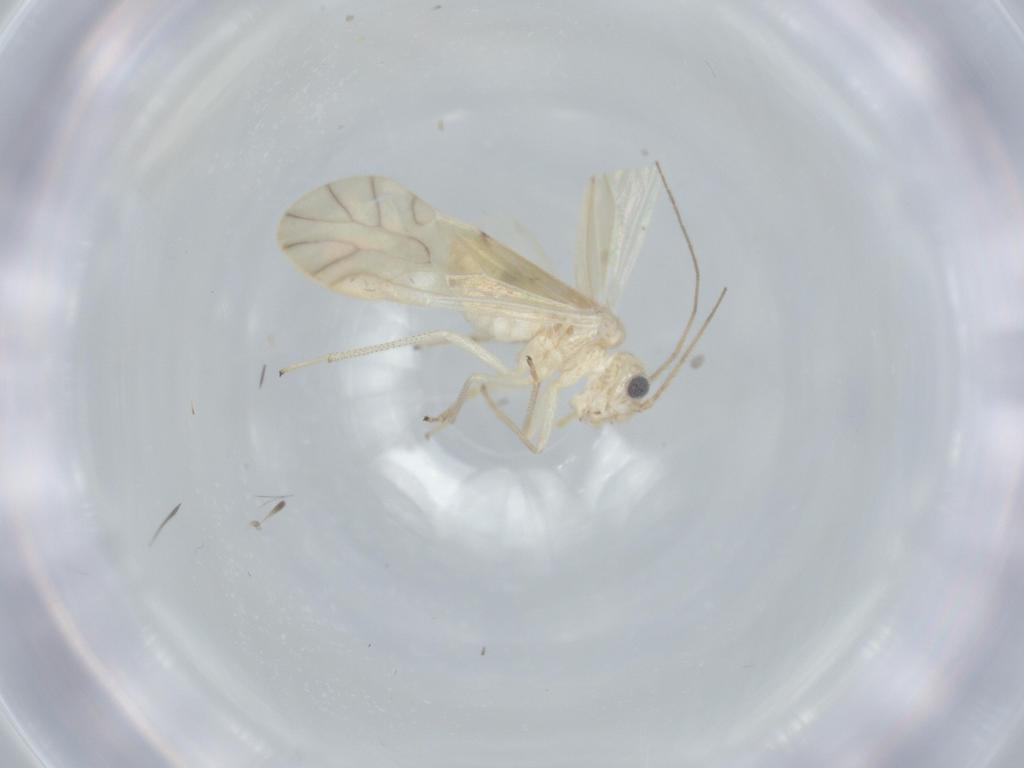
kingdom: Animalia
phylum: Arthropoda
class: Insecta
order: Psocodea
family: Caeciliusidae
